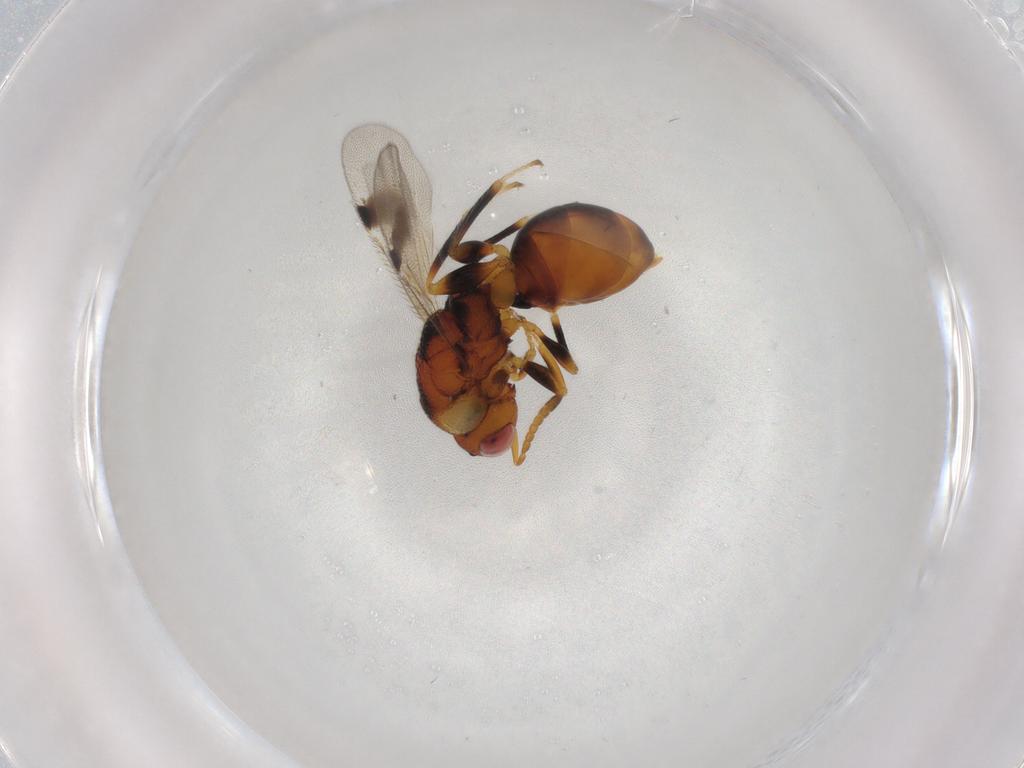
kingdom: Animalia
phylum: Arthropoda
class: Insecta
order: Hymenoptera
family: Eurytomidae
